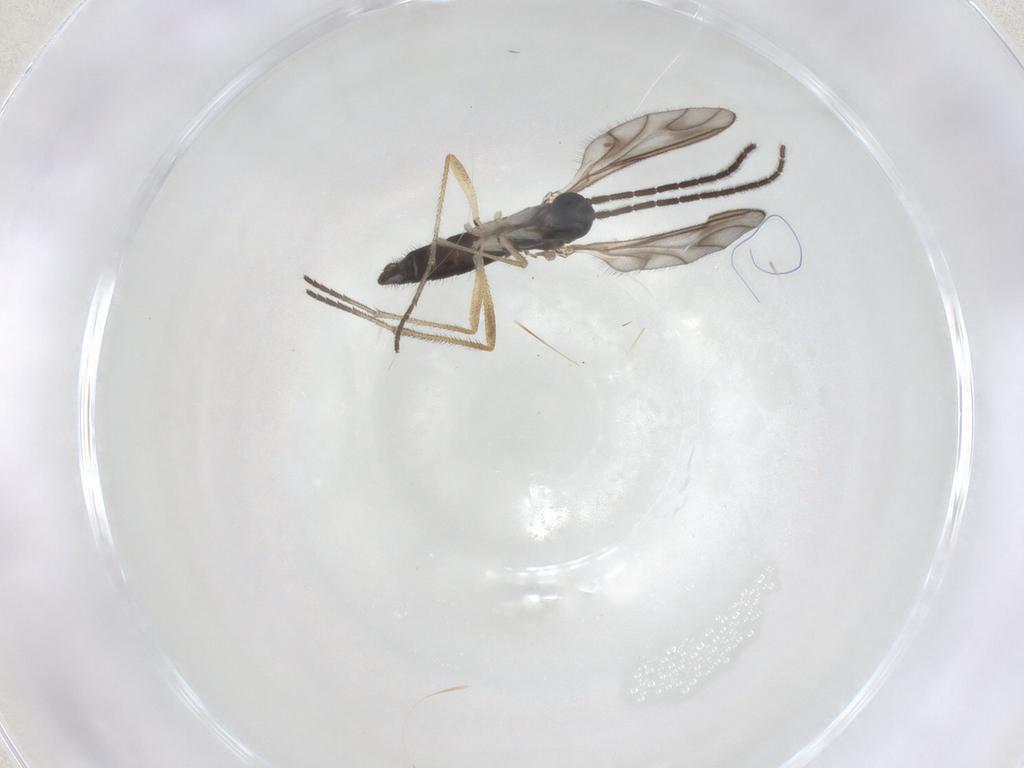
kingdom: Animalia
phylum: Arthropoda
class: Insecta
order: Diptera
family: Sciaridae
